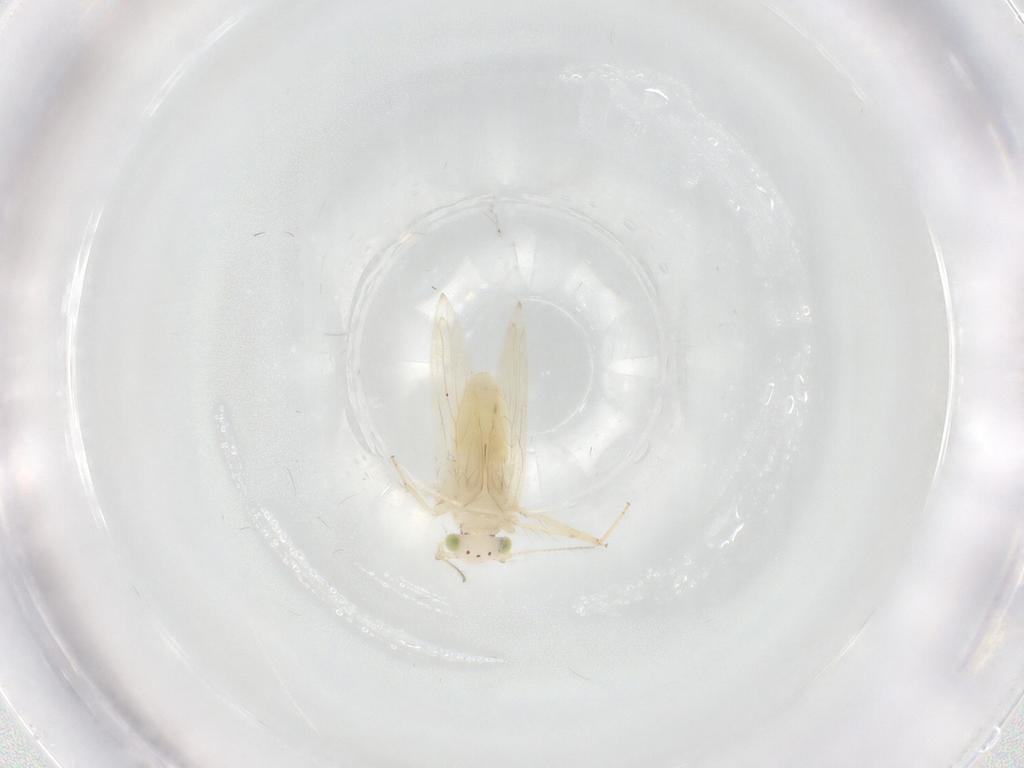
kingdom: Animalia
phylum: Arthropoda
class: Insecta
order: Psocodea
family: Lepidopsocidae
